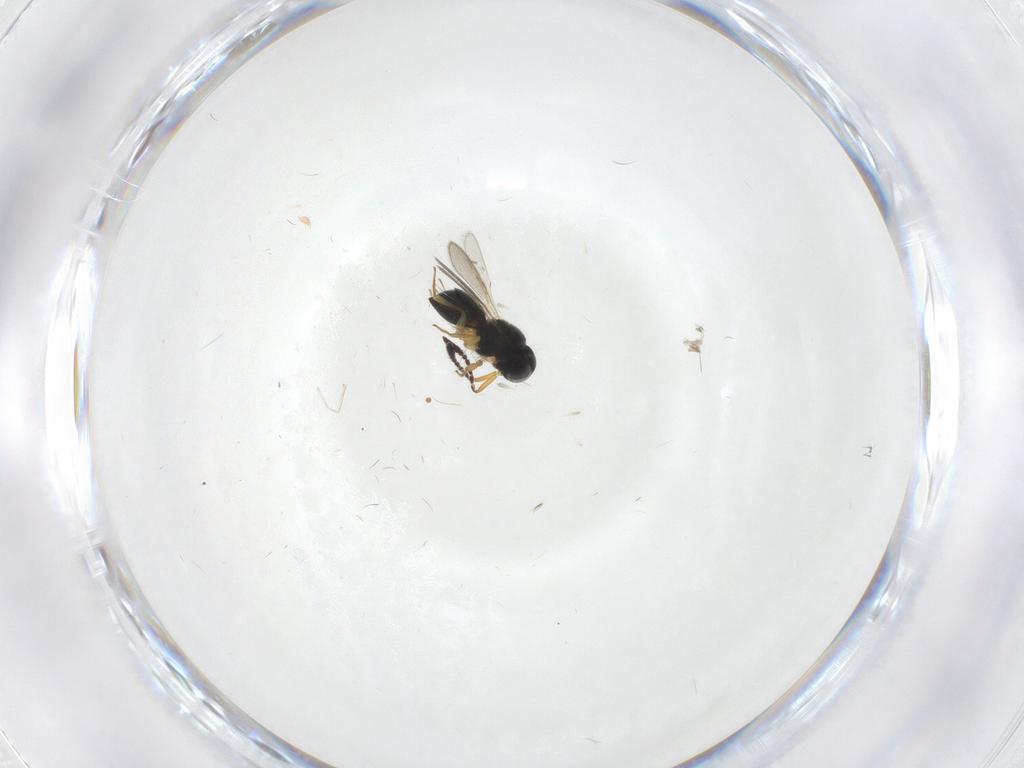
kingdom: Animalia
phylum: Arthropoda
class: Insecta
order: Hymenoptera
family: Scelionidae
